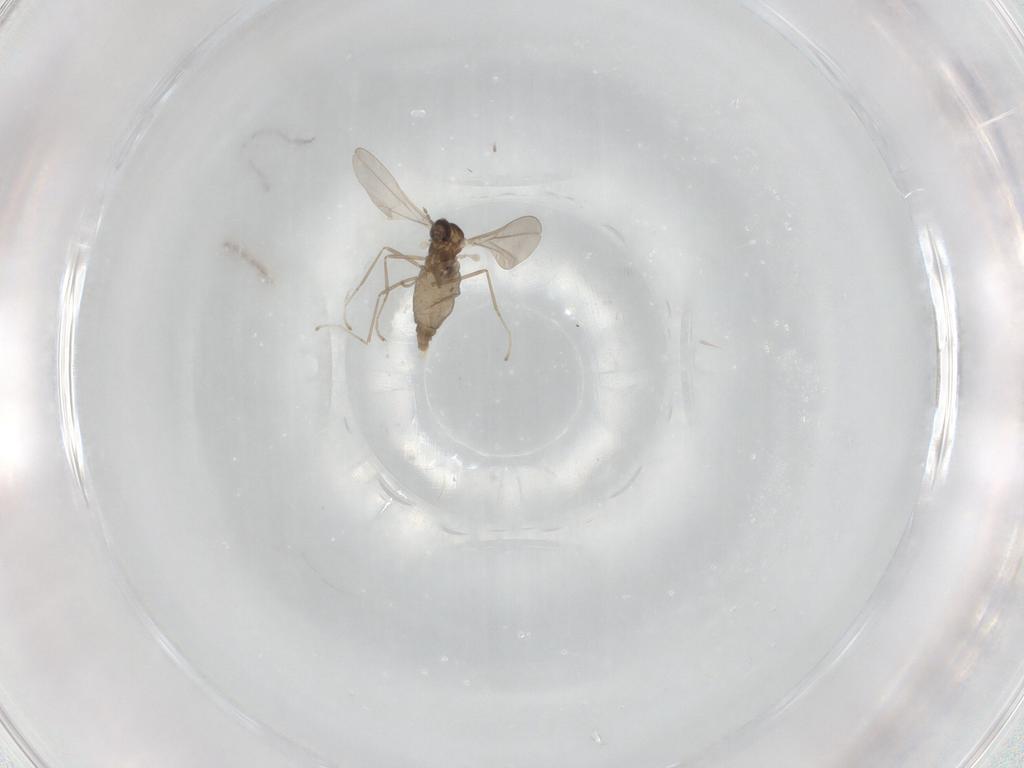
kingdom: Animalia
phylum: Arthropoda
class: Insecta
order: Diptera
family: Cecidomyiidae
